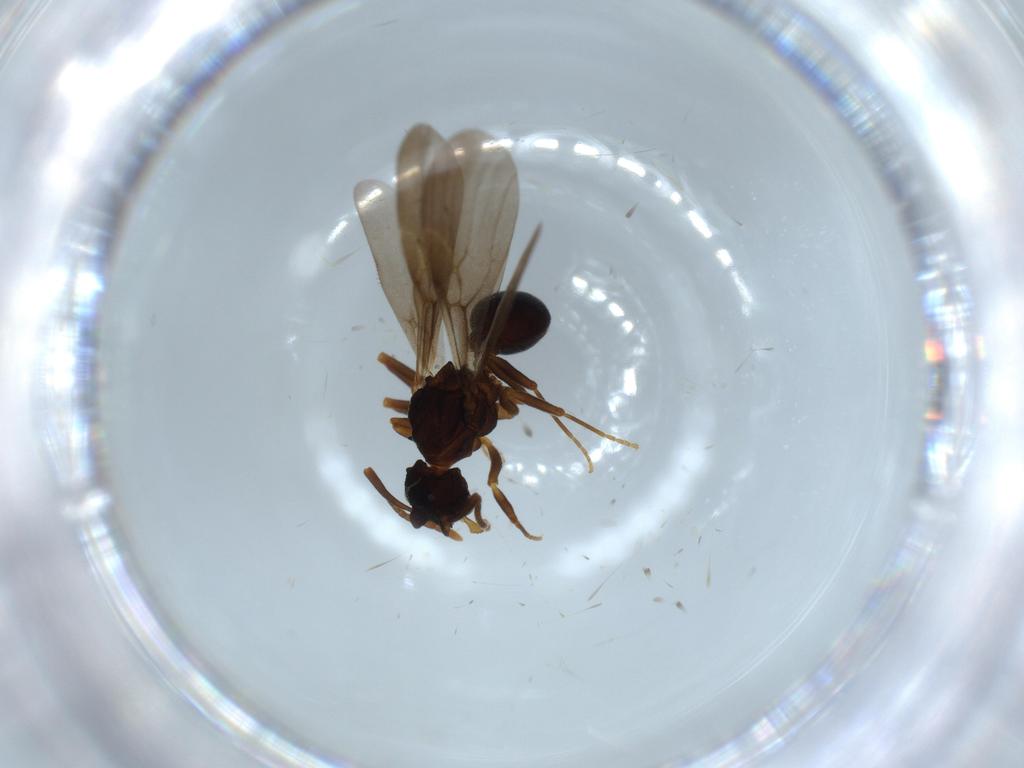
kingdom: Animalia
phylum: Arthropoda
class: Insecta
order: Hymenoptera
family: Formicidae
